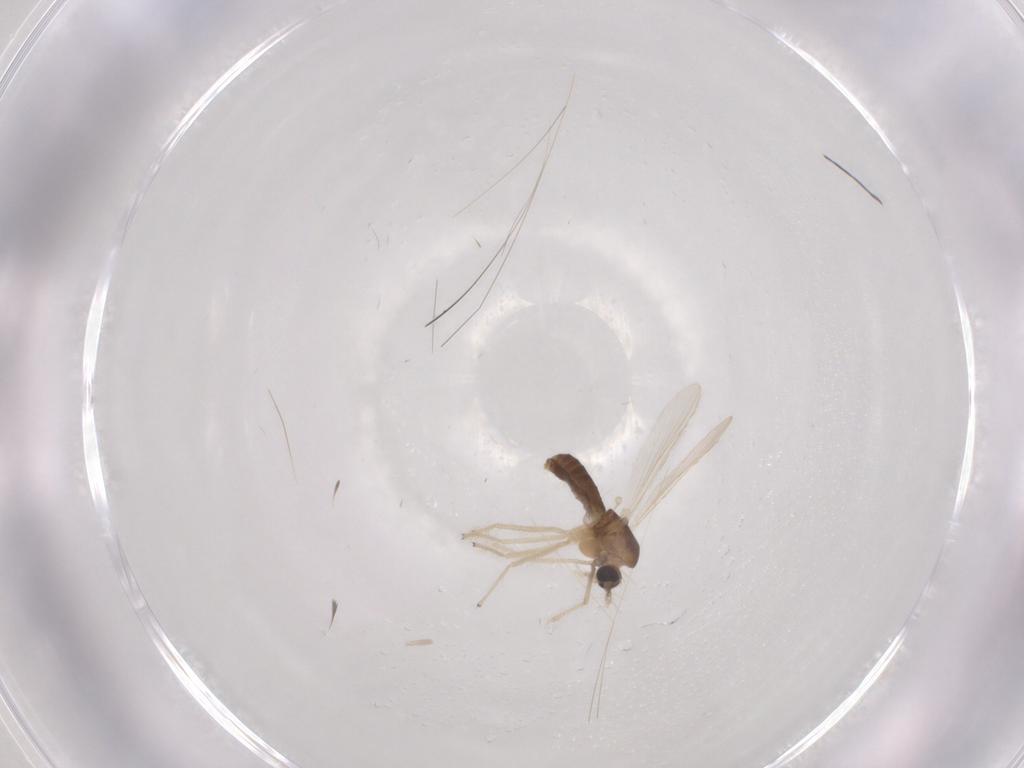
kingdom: Animalia
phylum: Arthropoda
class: Insecta
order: Diptera
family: Chironomidae
